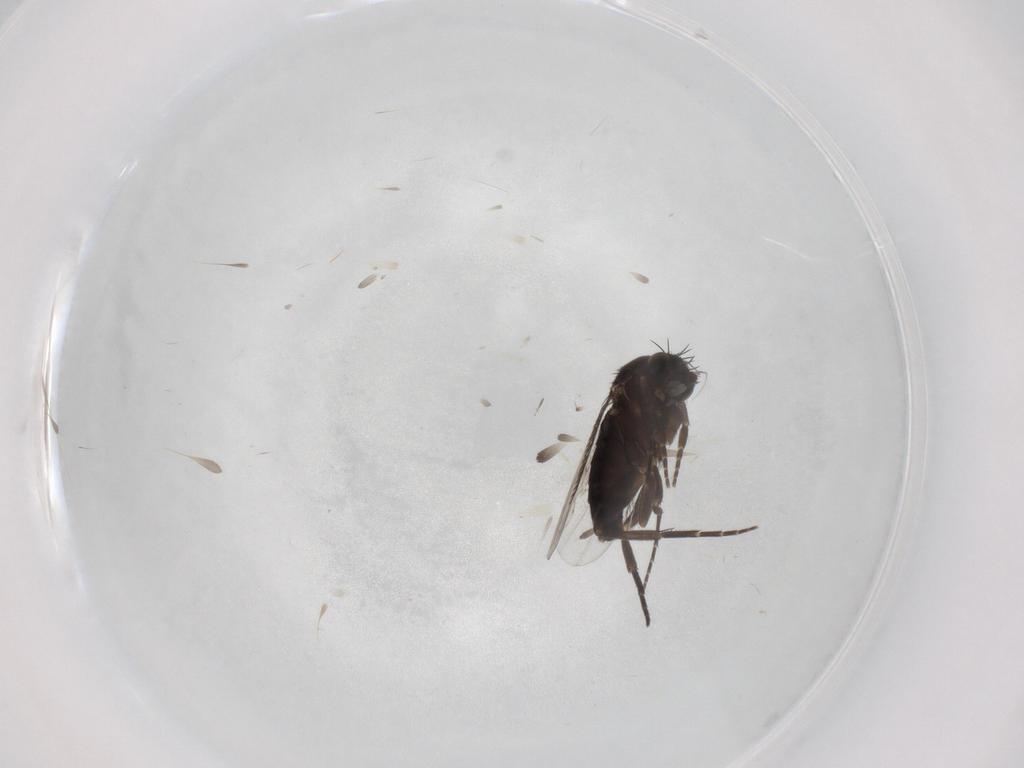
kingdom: Animalia
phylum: Arthropoda
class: Insecta
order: Diptera
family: Phoridae
